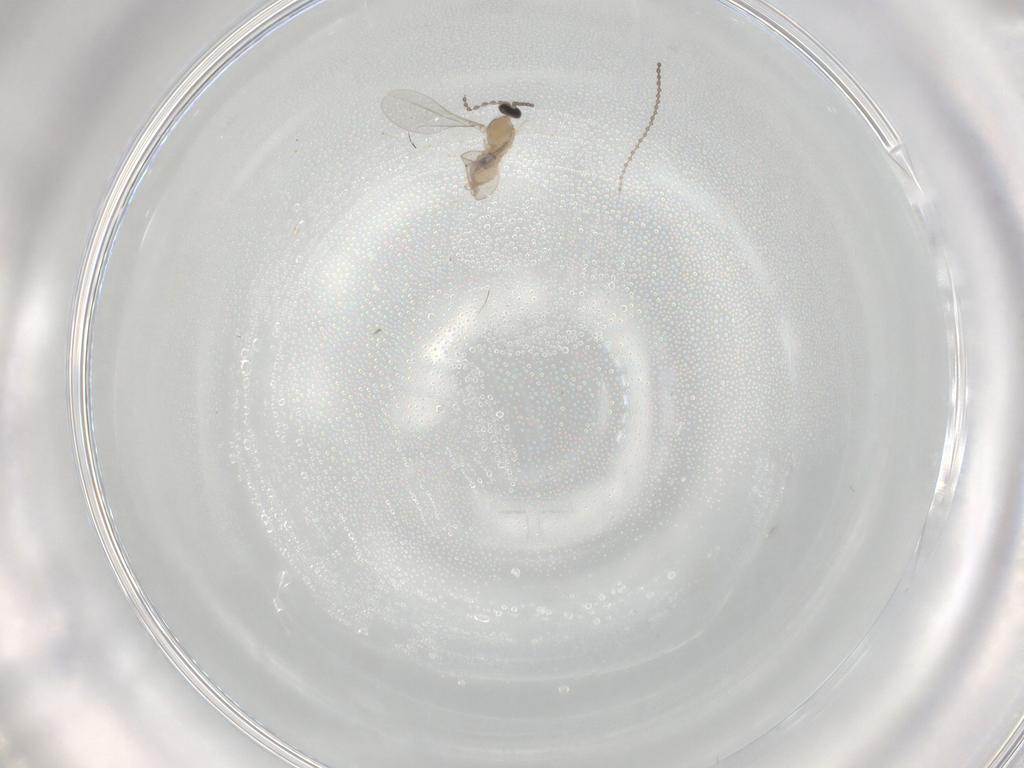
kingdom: Animalia
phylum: Arthropoda
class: Insecta
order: Diptera
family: Cecidomyiidae
